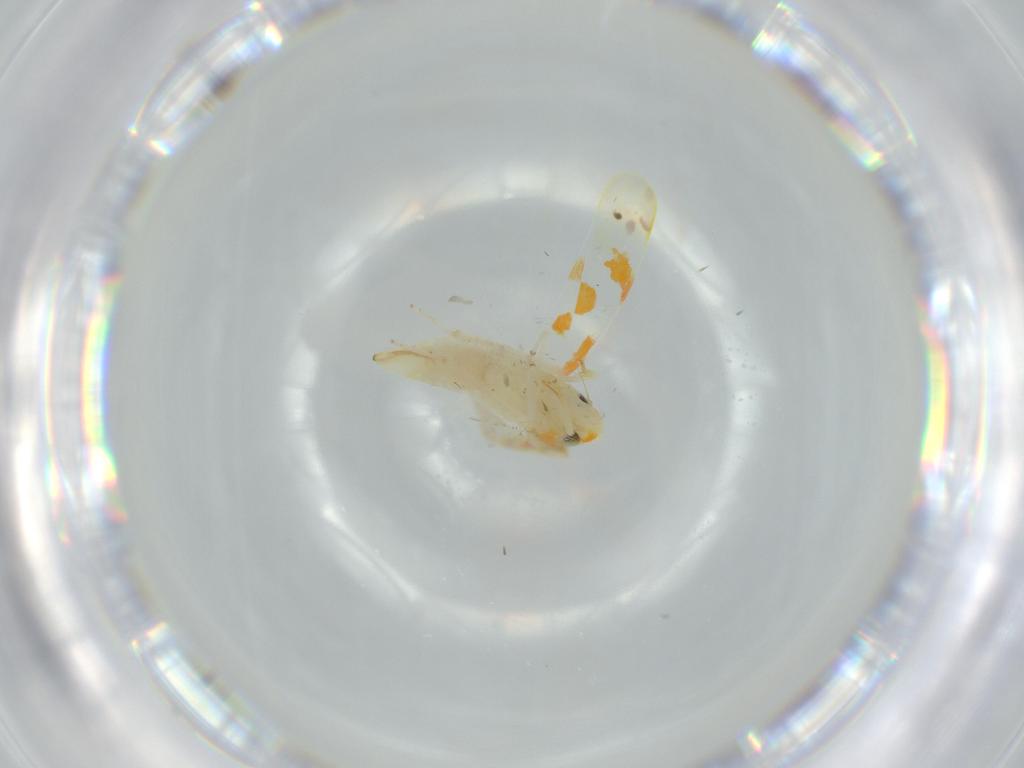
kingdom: Animalia
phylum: Arthropoda
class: Insecta
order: Hemiptera
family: Cicadellidae
